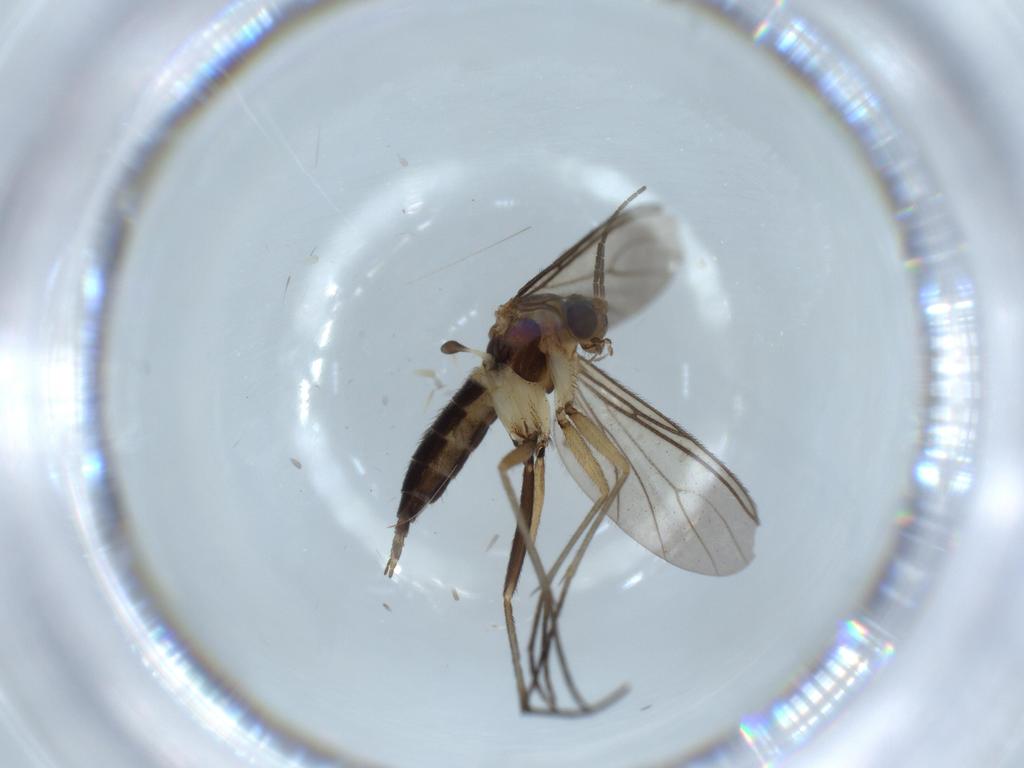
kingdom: Animalia
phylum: Arthropoda
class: Insecta
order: Diptera
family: Sciaridae
